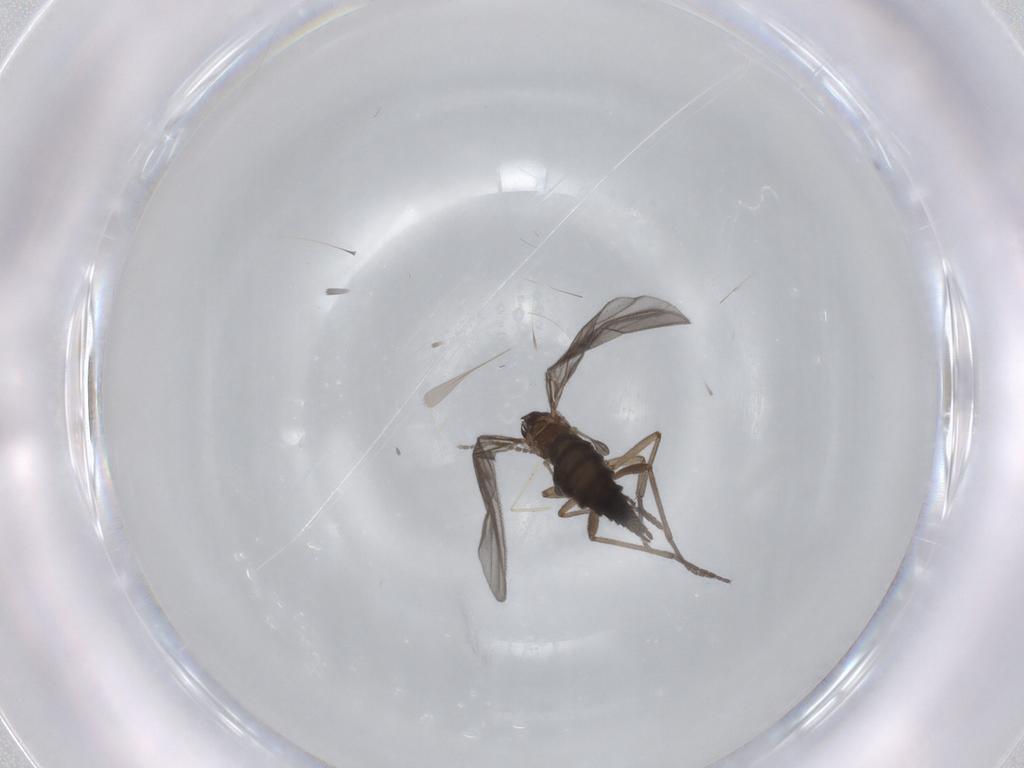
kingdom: Animalia
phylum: Arthropoda
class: Insecta
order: Diptera
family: Sciaridae
